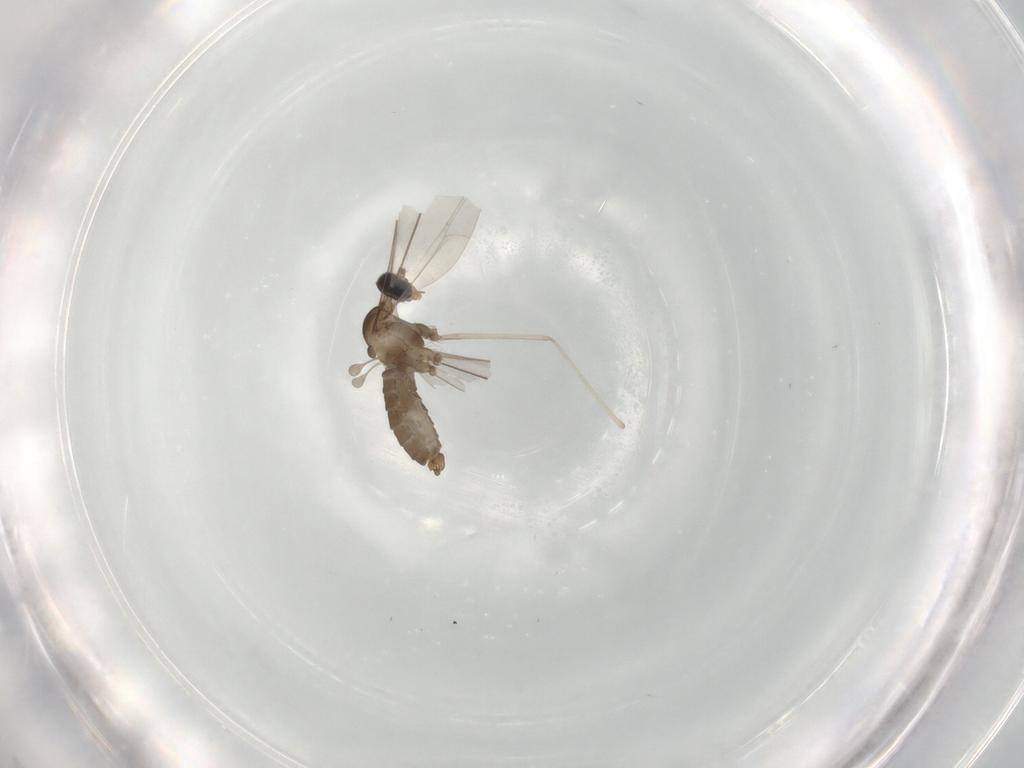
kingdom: Animalia
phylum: Arthropoda
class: Insecta
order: Diptera
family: Cecidomyiidae
